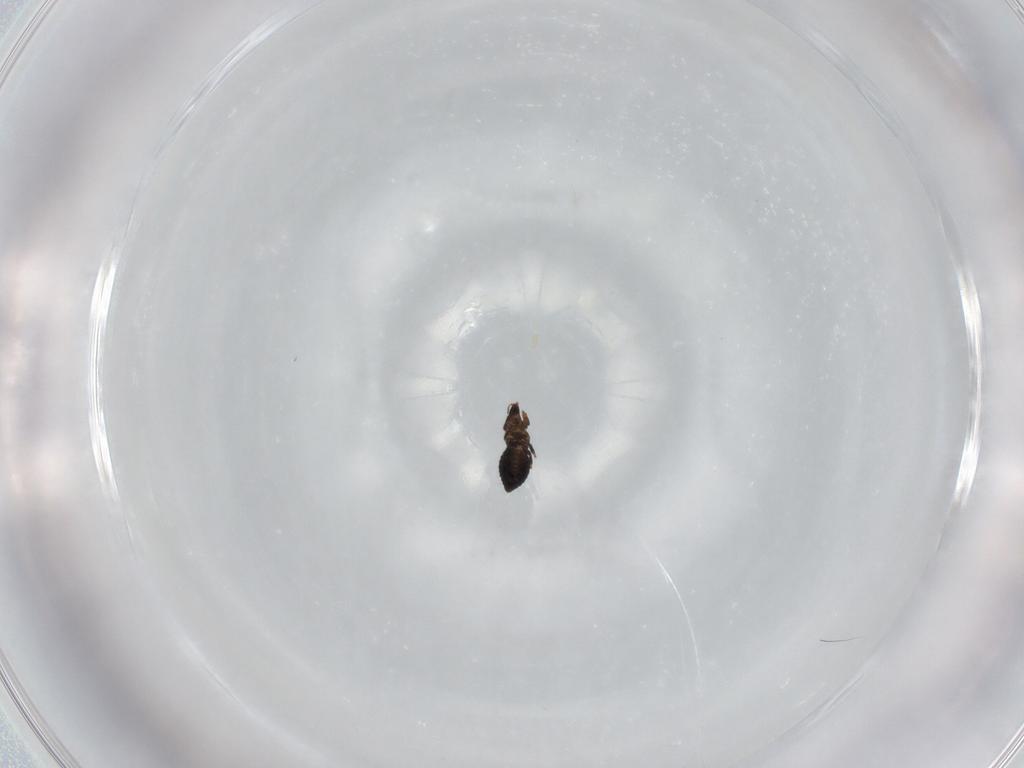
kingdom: Animalia
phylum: Arthropoda
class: Insecta
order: Lepidoptera
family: Tortricidae
